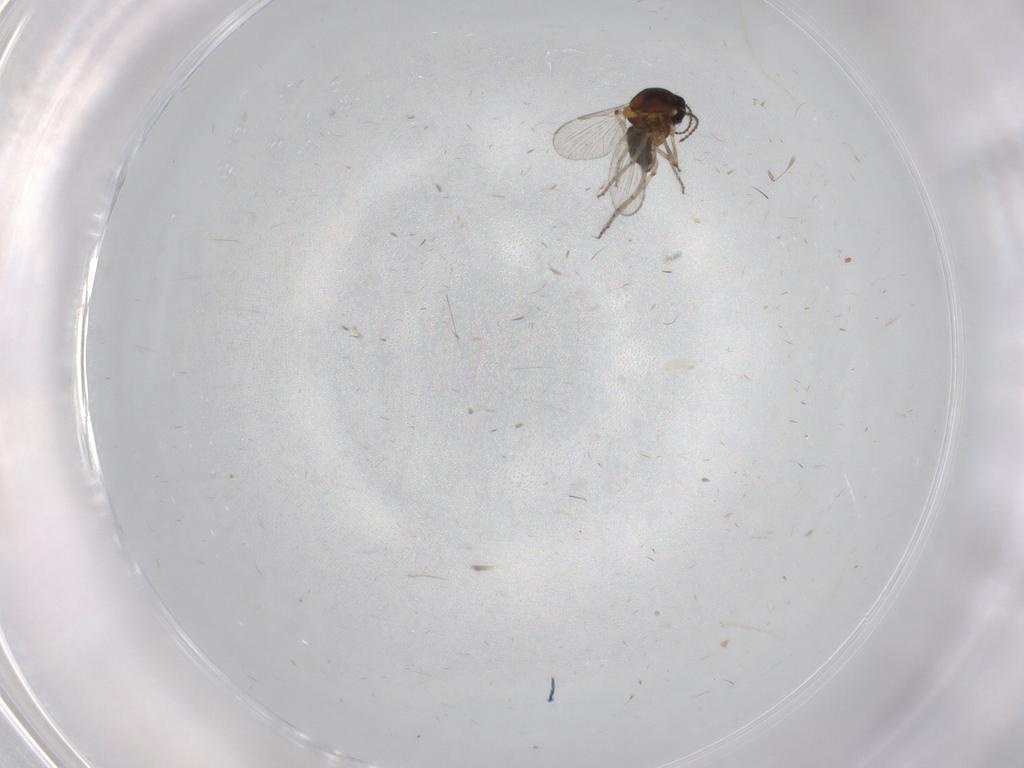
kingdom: Animalia
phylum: Arthropoda
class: Insecta
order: Diptera
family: Ceratopogonidae
